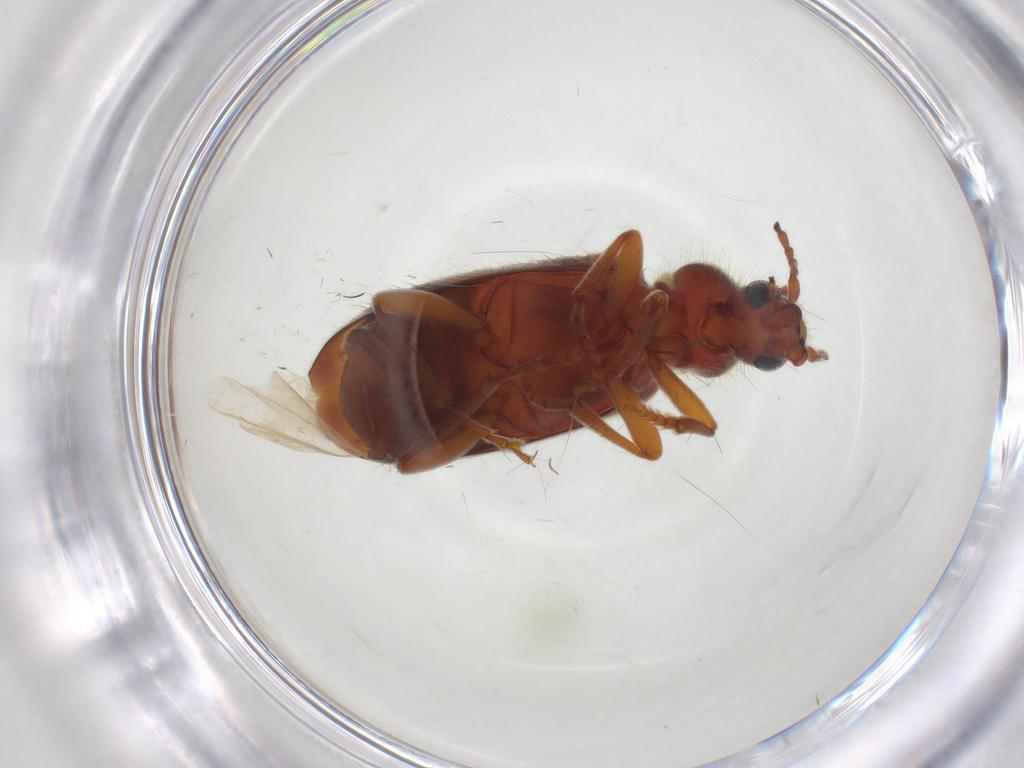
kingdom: Animalia
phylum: Arthropoda
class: Insecta
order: Coleoptera
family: Anthicidae
